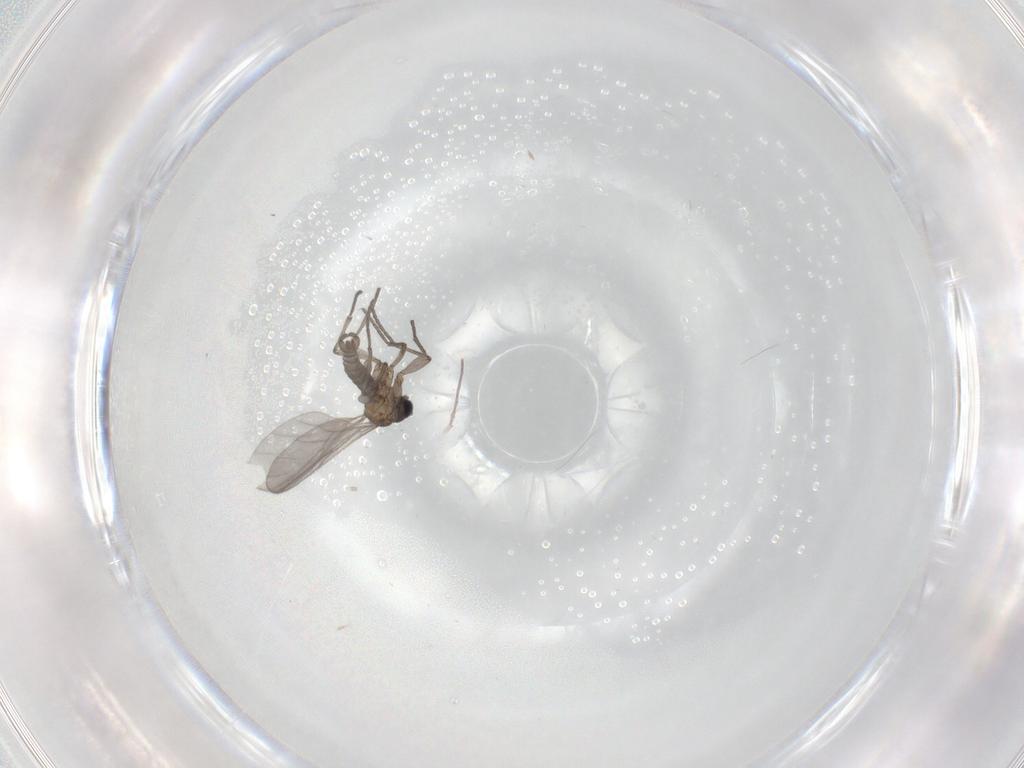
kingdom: Animalia
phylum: Arthropoda
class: Insecta
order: Diptera
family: Sciaridae
